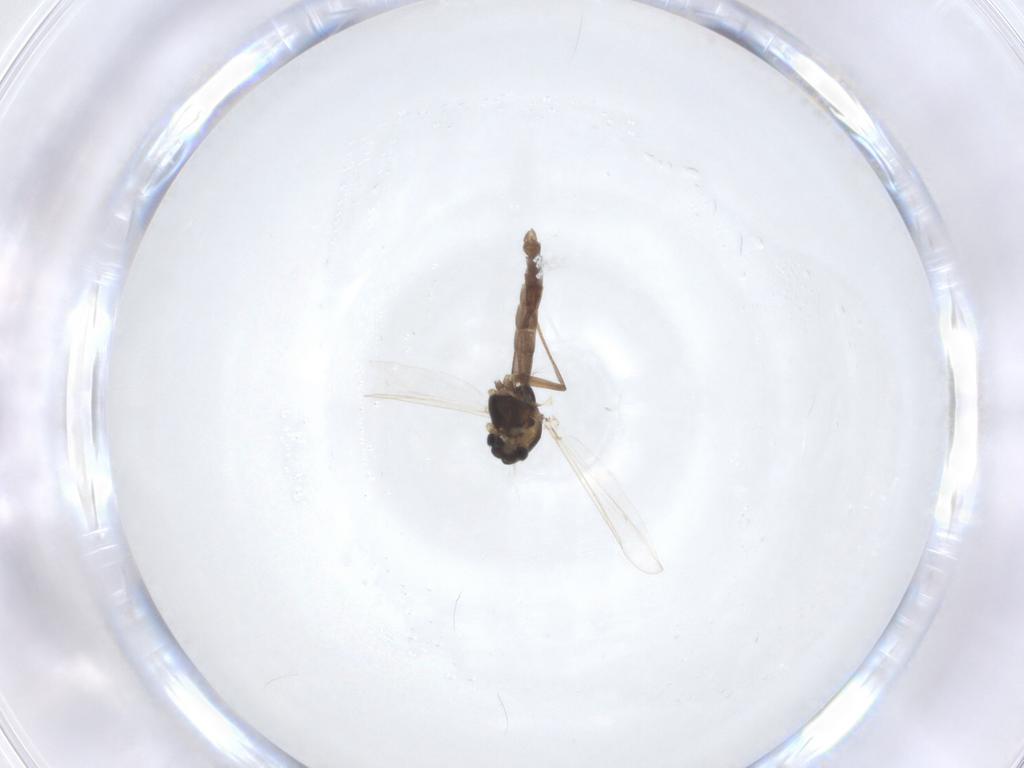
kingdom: Animalia
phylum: Arthropoda
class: Insecta
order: Diptera
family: Chironomidae
